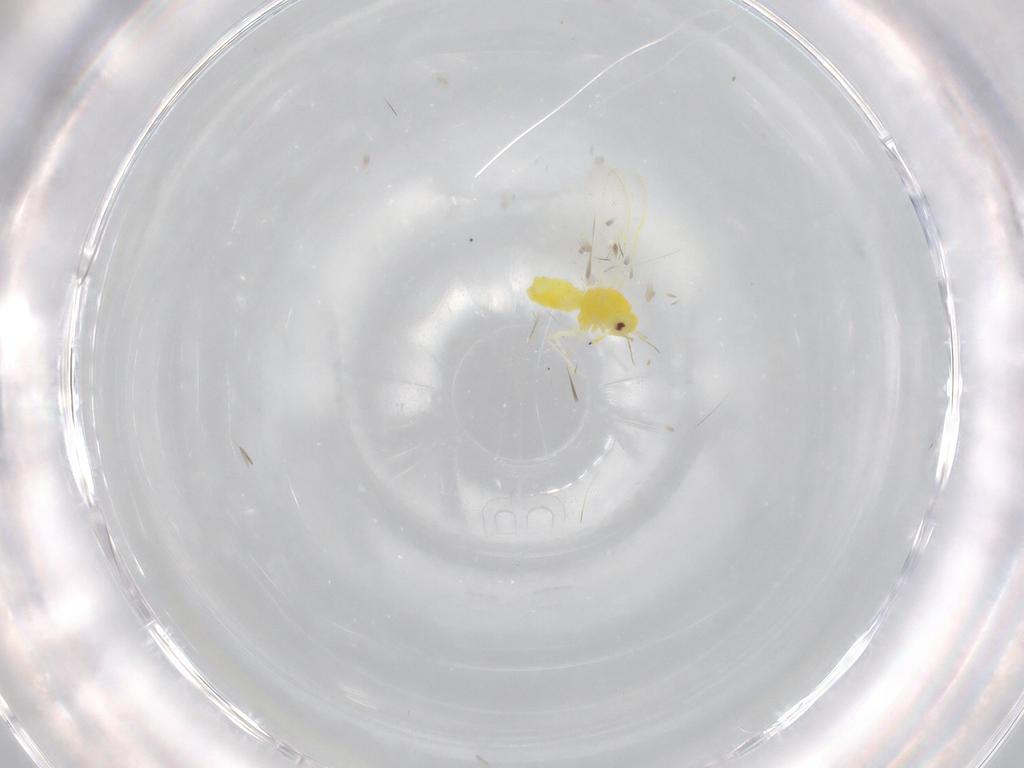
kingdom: Animalia
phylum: Arthropoda
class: Insecta
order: Hemiptera
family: Aleyrodidae
